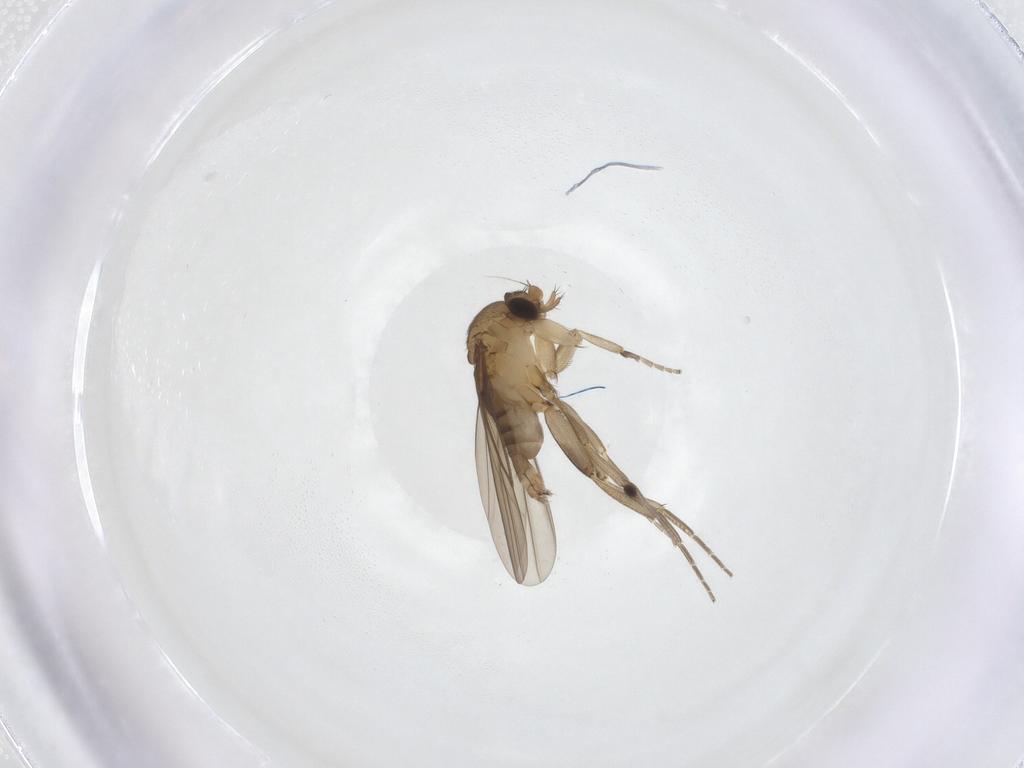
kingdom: Animalia
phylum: Arthropoda
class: Insecta
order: Diptera
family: Phoridae
